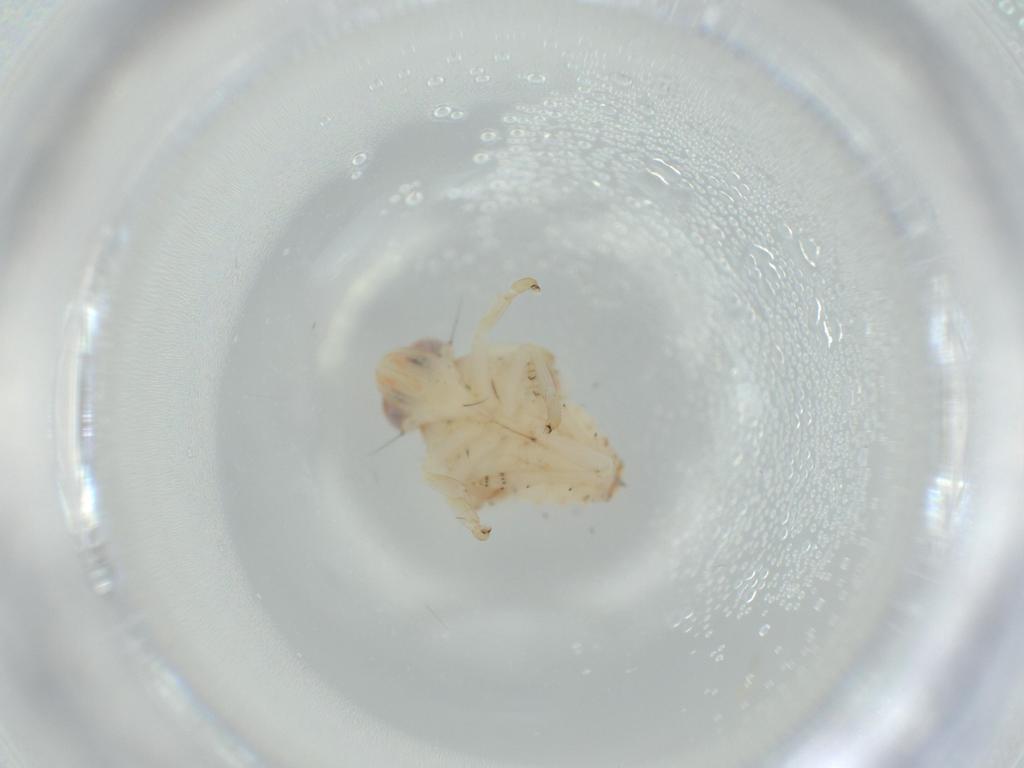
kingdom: Animalia
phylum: Arthropoda
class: Insecta
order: Hemiptera
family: Nogodinidae
